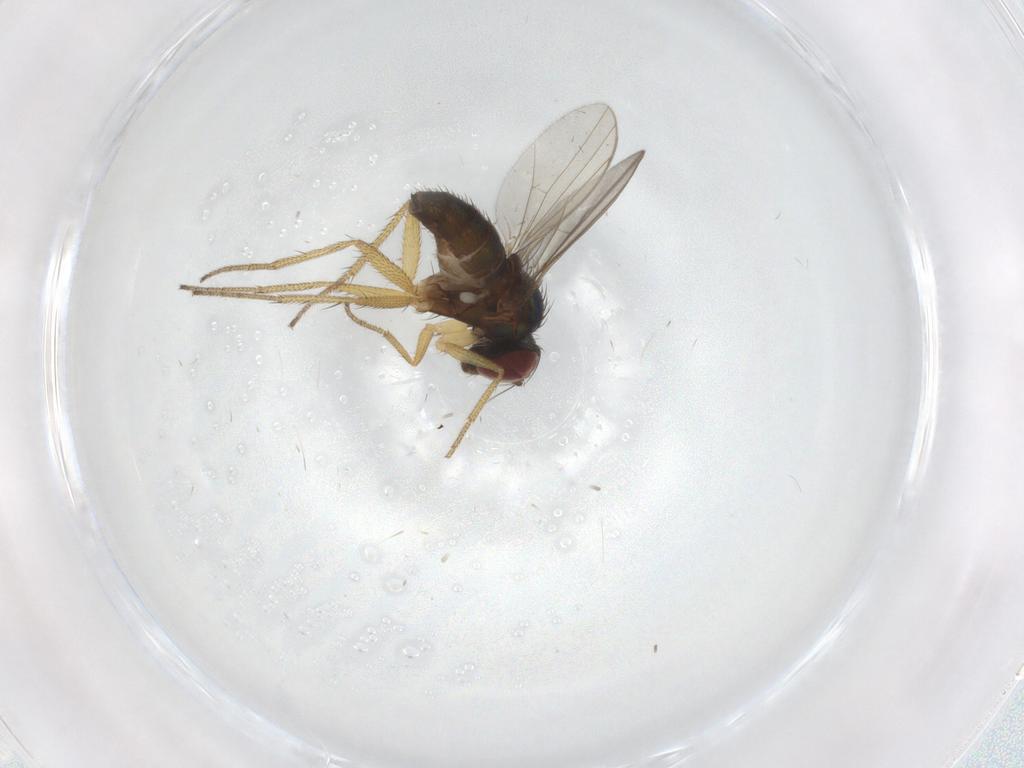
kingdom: Animalia
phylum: Arthropoda
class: Insecta
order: Diptera
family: Dolichopodidae
